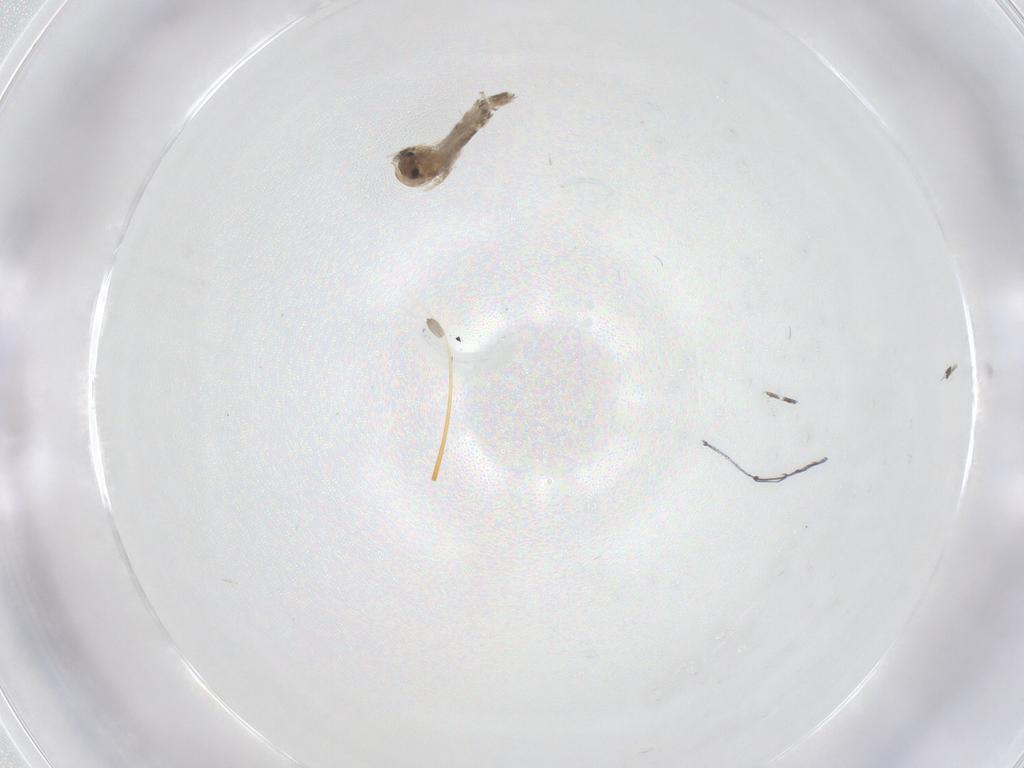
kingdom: Animalia
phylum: Arthropoda
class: Insecta
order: Diptera
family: Chironomidae
